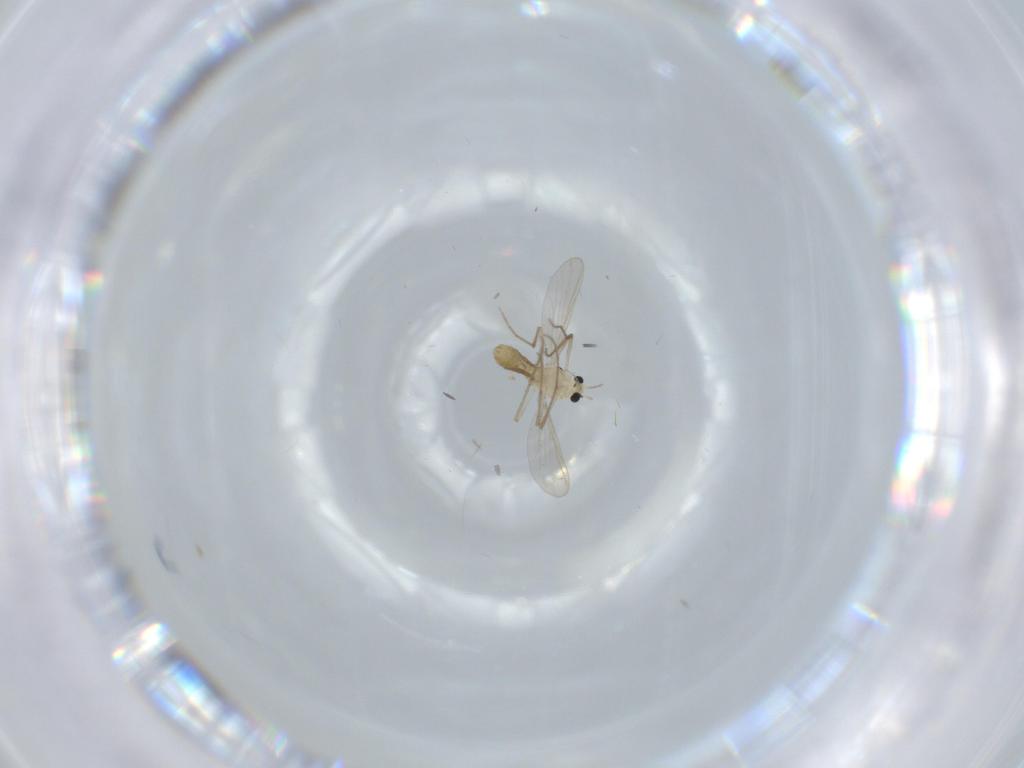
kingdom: Animalia
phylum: Arthropoda
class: Insecta
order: Diptera
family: Chironomidae
